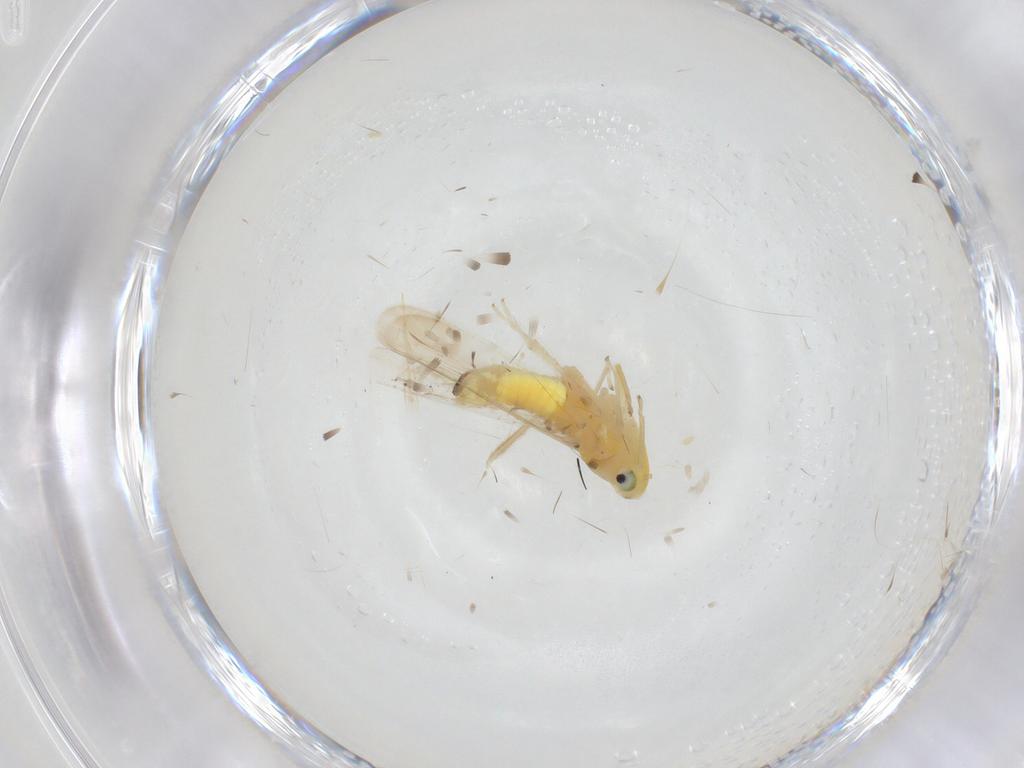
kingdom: Animalia
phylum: Arthropoda
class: Insecta
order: Hemiptera
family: Cicadellidae
